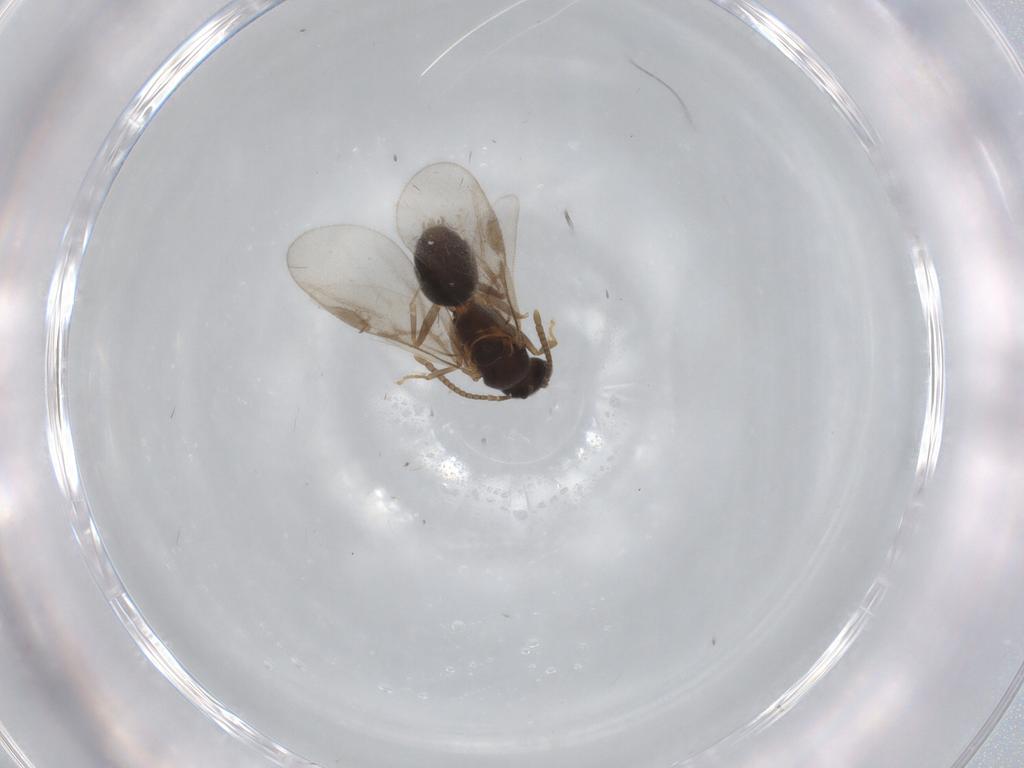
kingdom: Animalia
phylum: Arthropoda
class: Insecta
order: Hymenoptera
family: Formicidae
